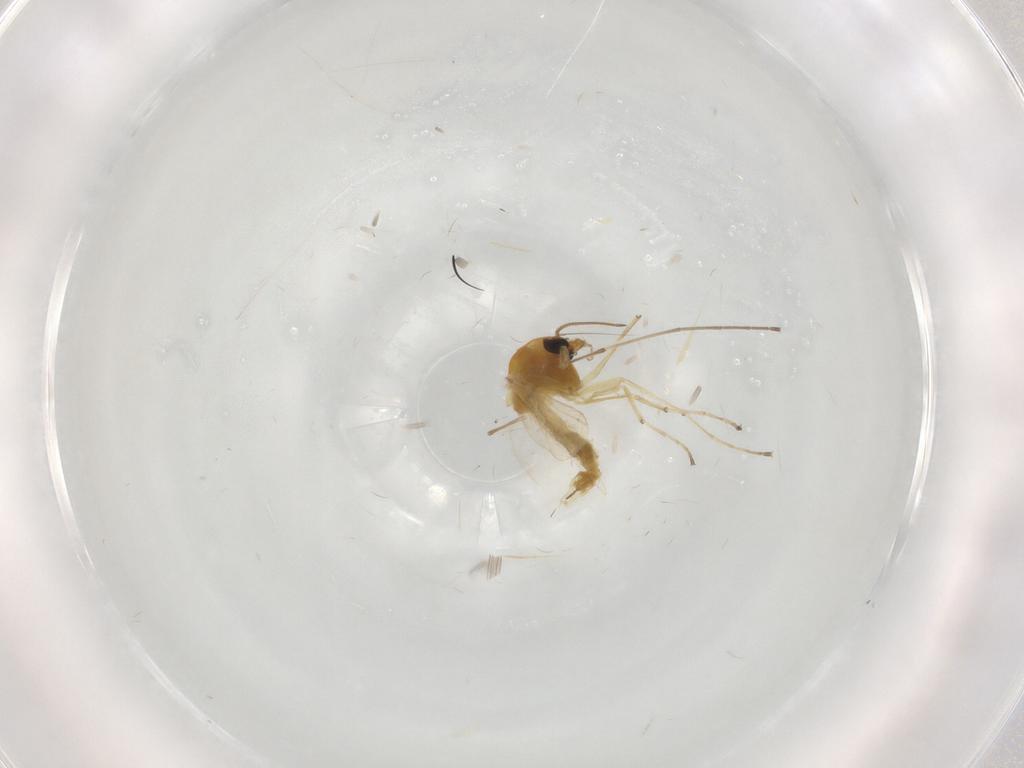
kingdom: Animalia
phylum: Arthropoda
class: Insecta
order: Diptera
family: Chironomidae
